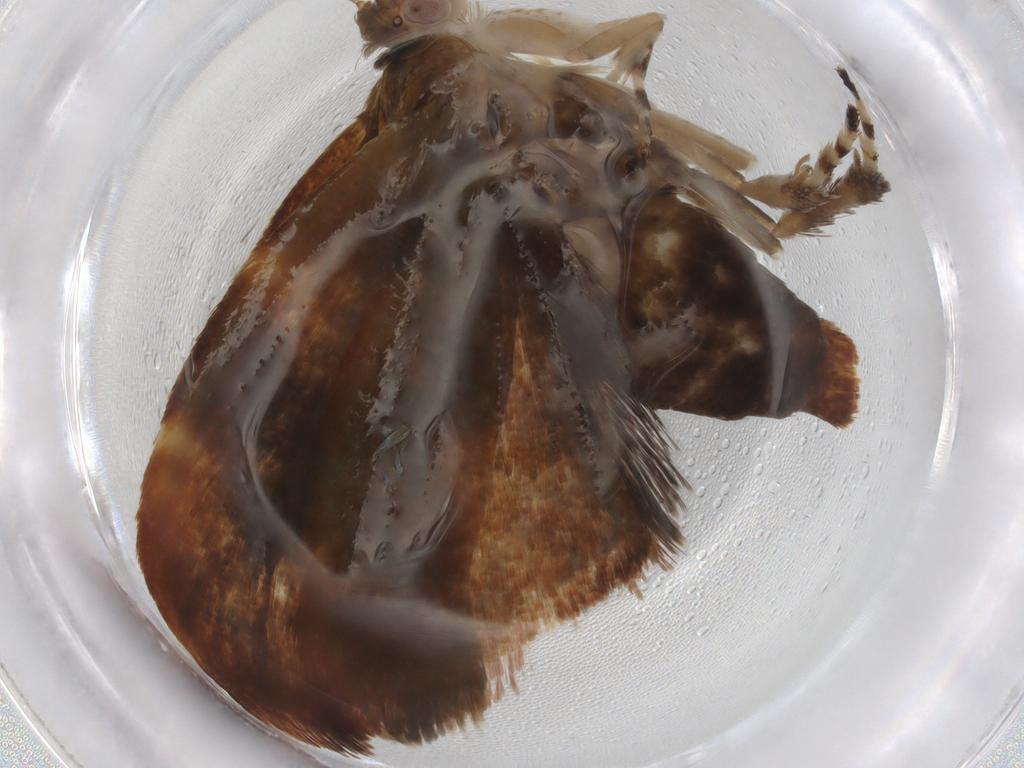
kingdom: Animalia
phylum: Arthropoda
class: Insecta
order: Lepidoptera
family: Choreutidae
